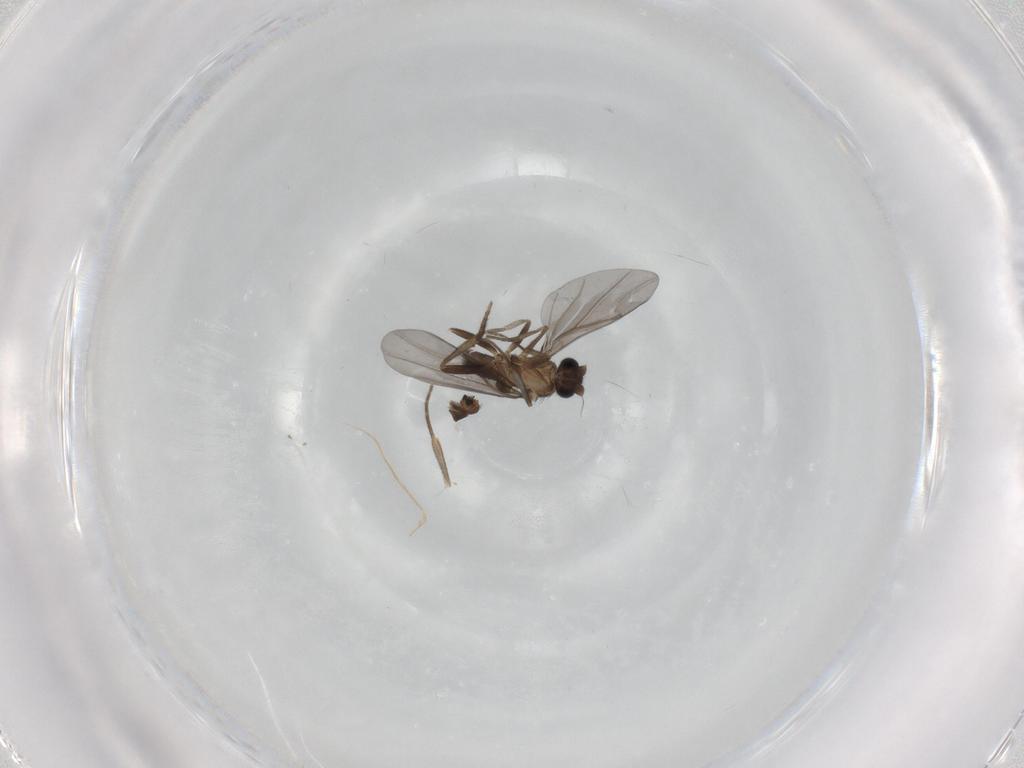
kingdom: Animalia
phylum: Arthropoda
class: Insecta
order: Diptera
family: Phoridae
